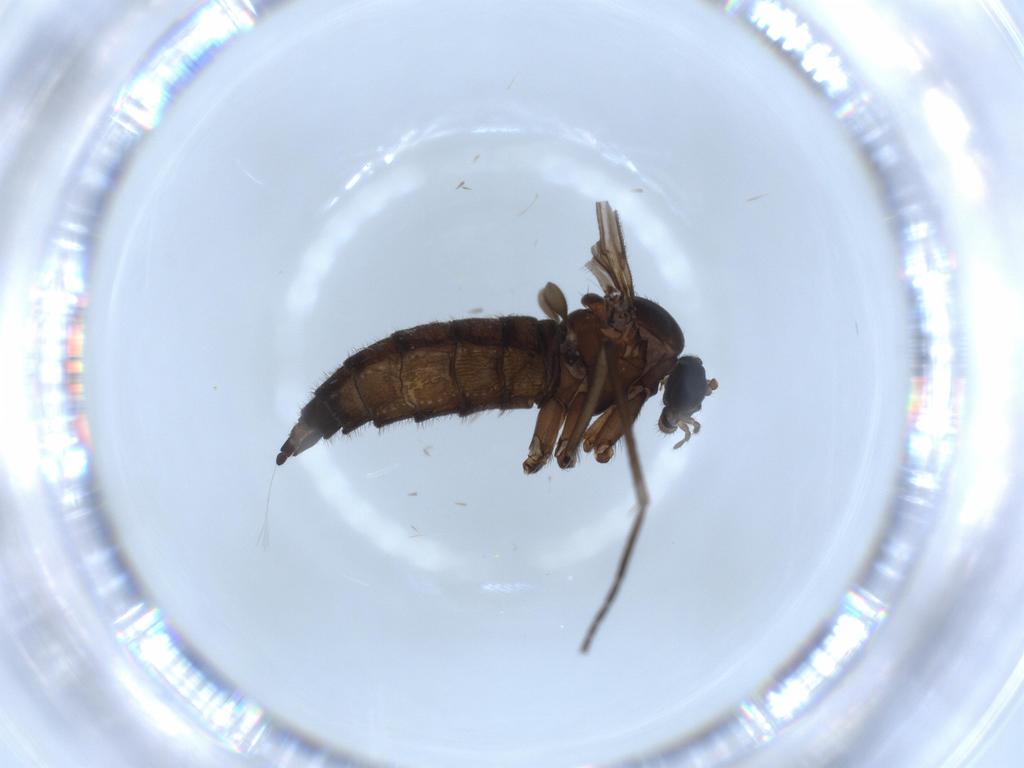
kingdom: Animalia
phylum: Arthropoda
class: Insecta
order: Diptera
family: Sciaridae
